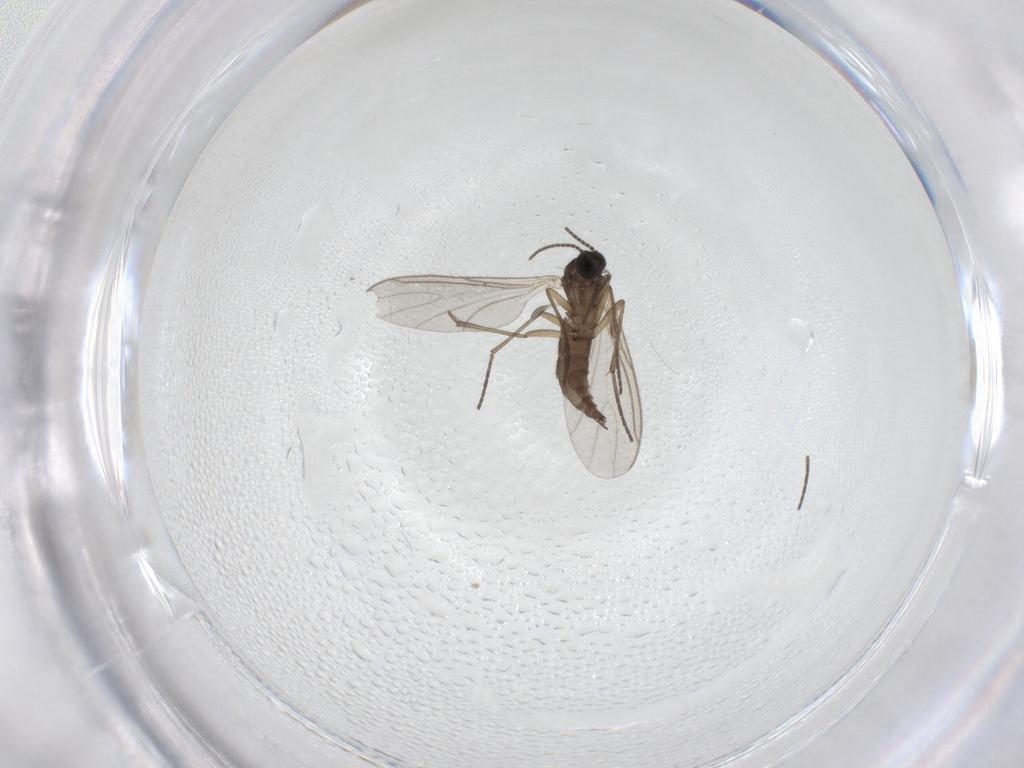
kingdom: Animalia
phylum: Arthropoda
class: Insecta
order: Diptera
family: Sciaridae
